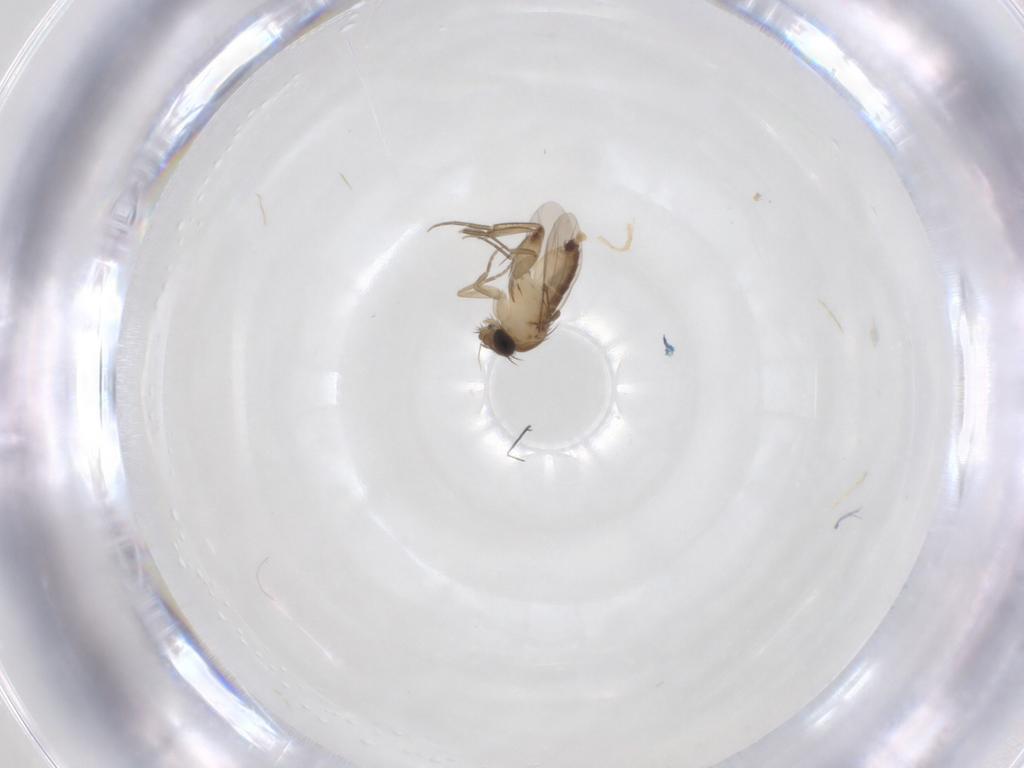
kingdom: Animalia
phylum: Arthropoda
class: Insecta
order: Diptera
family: Phoridae
